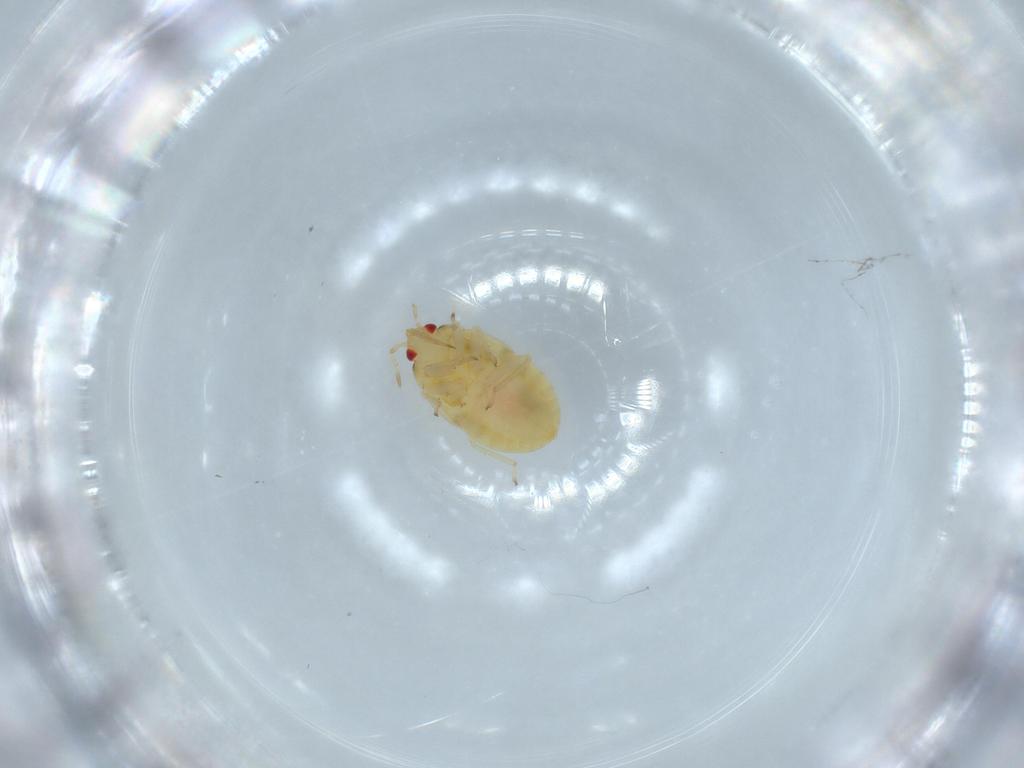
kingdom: Animalia
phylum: Arthropoda
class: Insecta
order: Hemiptera
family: Anthocoridae
